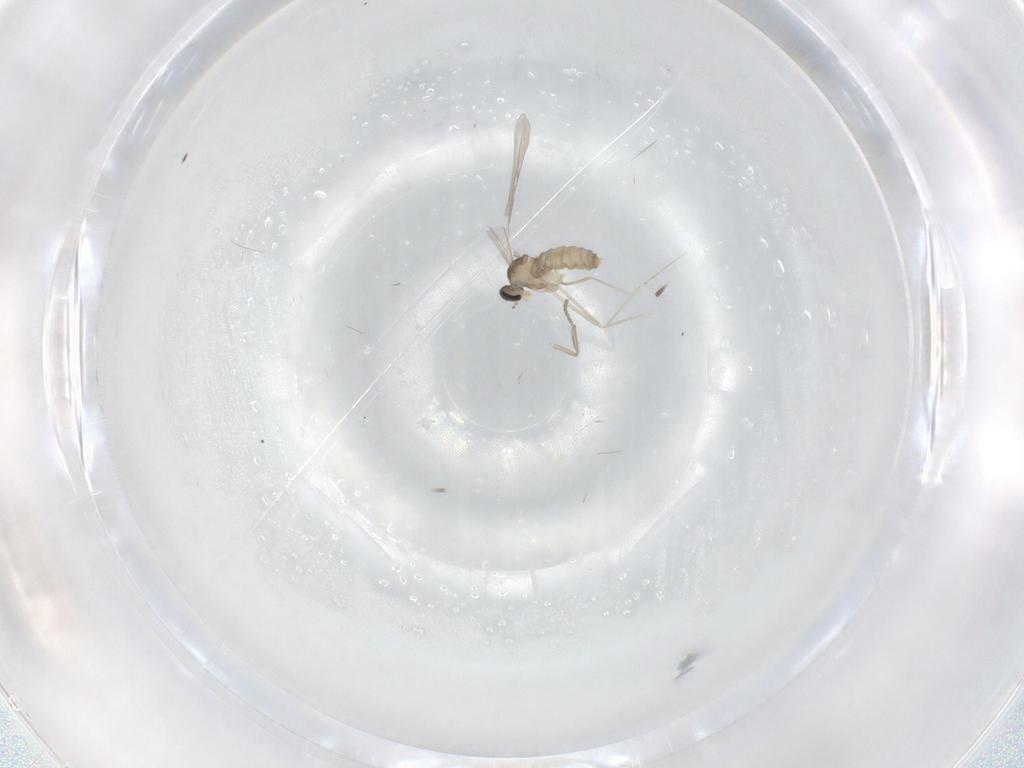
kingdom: Animalia
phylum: Arthropoda
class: Insecta
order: Diptera
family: Psychodidae
